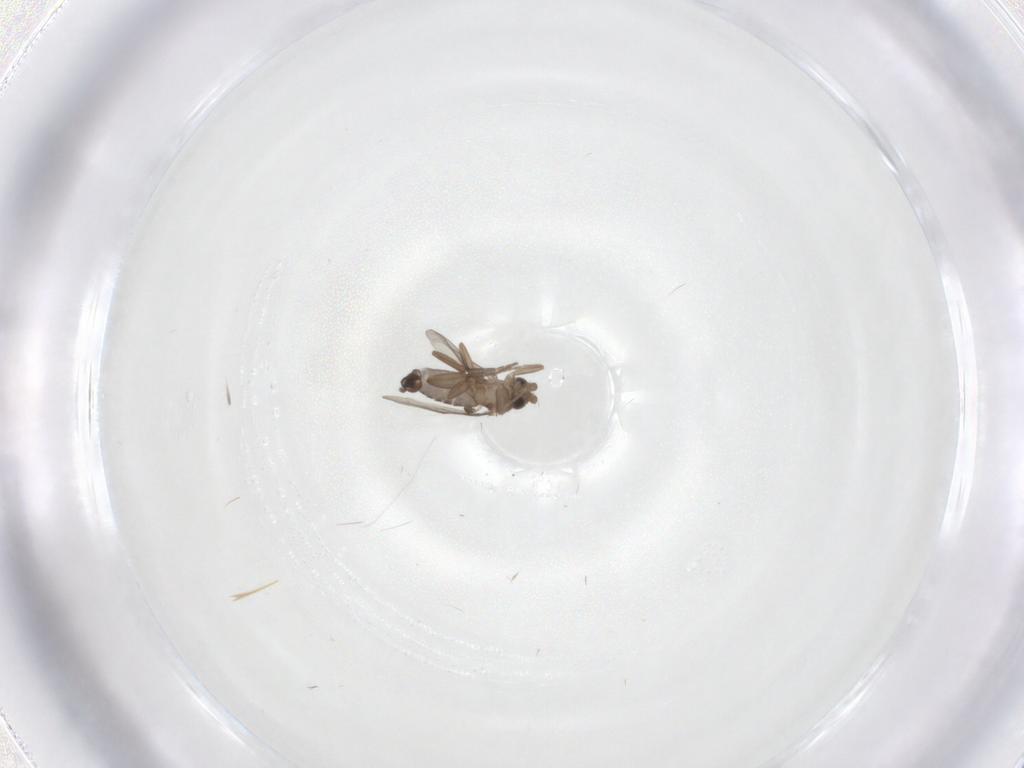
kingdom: Animalia
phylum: Arthropoda
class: Insecta
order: Diptera
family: Phoridae
